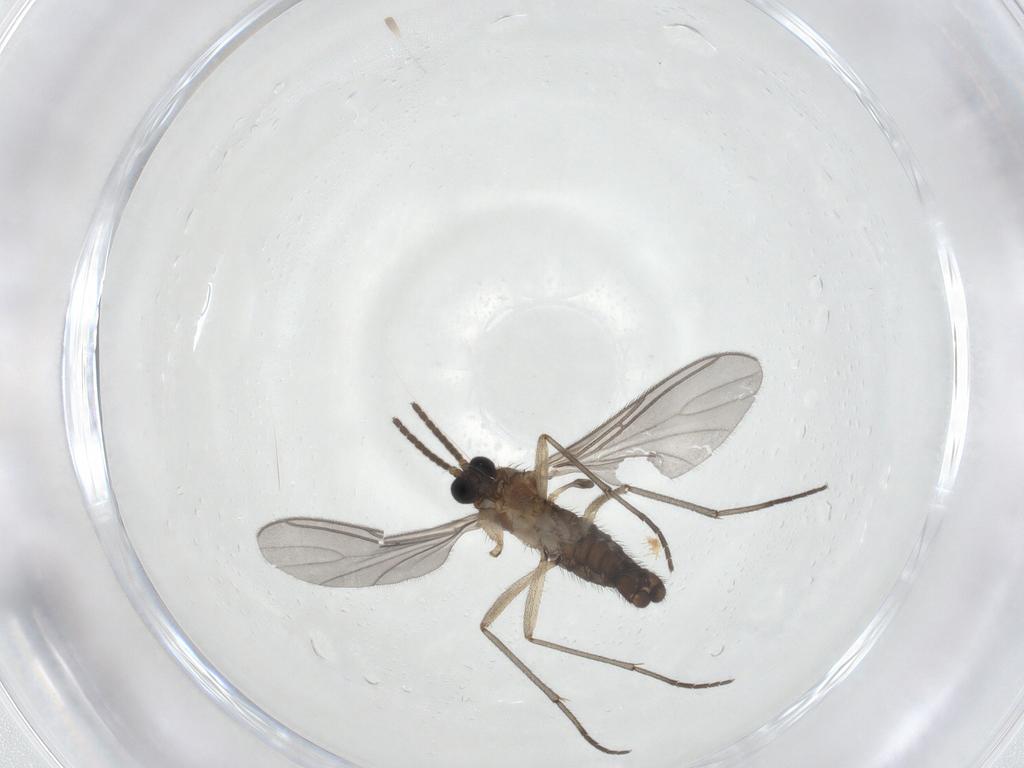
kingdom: Animalia
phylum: Arthropoda
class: Insecta
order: Diptera
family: Sciaridae
